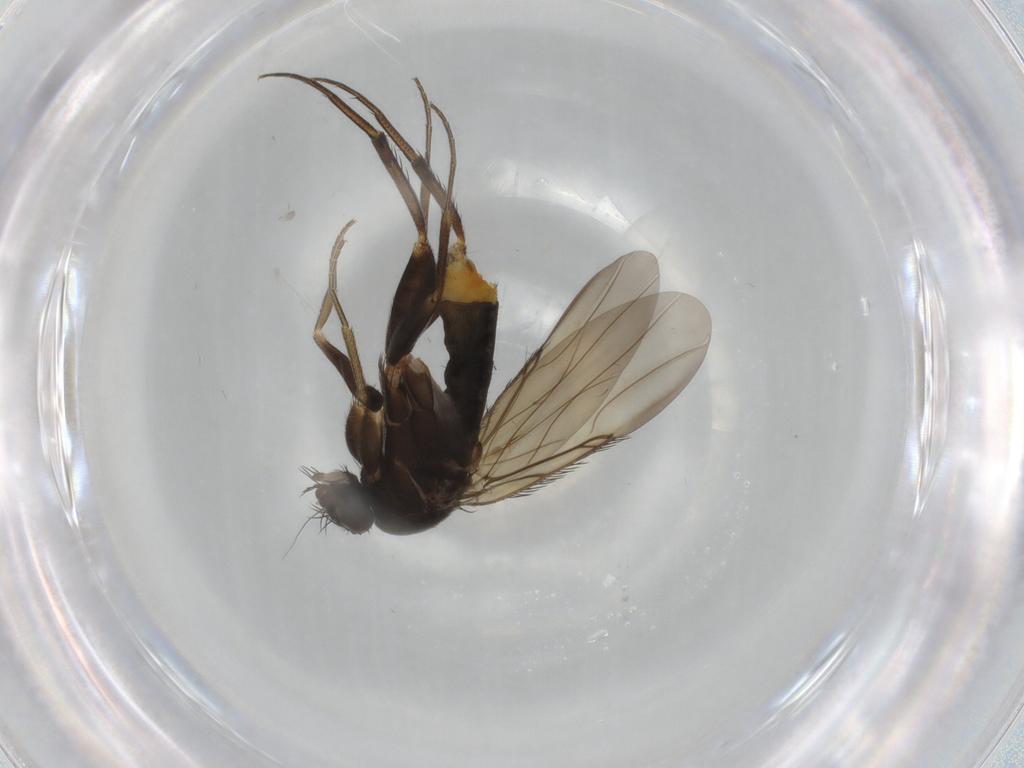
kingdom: Animalia
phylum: Arthropoda
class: Insecta
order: Diptera
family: Phoridae
